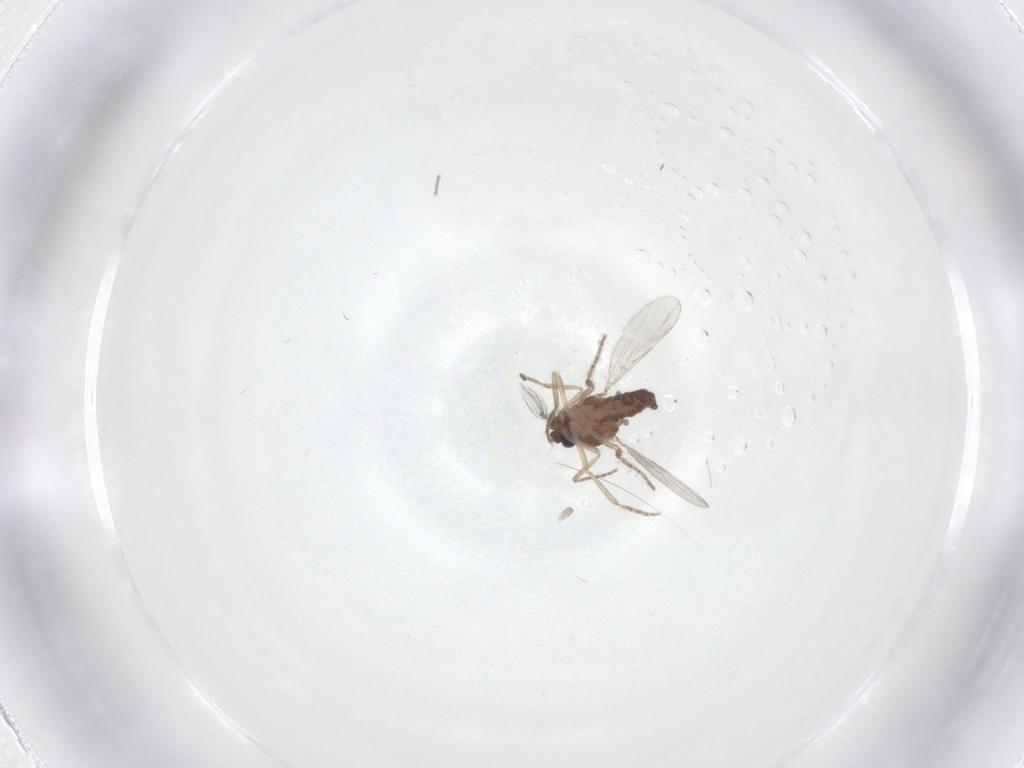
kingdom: Animalia
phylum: Arthropoda
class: Insecta
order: Diptera
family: Ceratopogonidae
